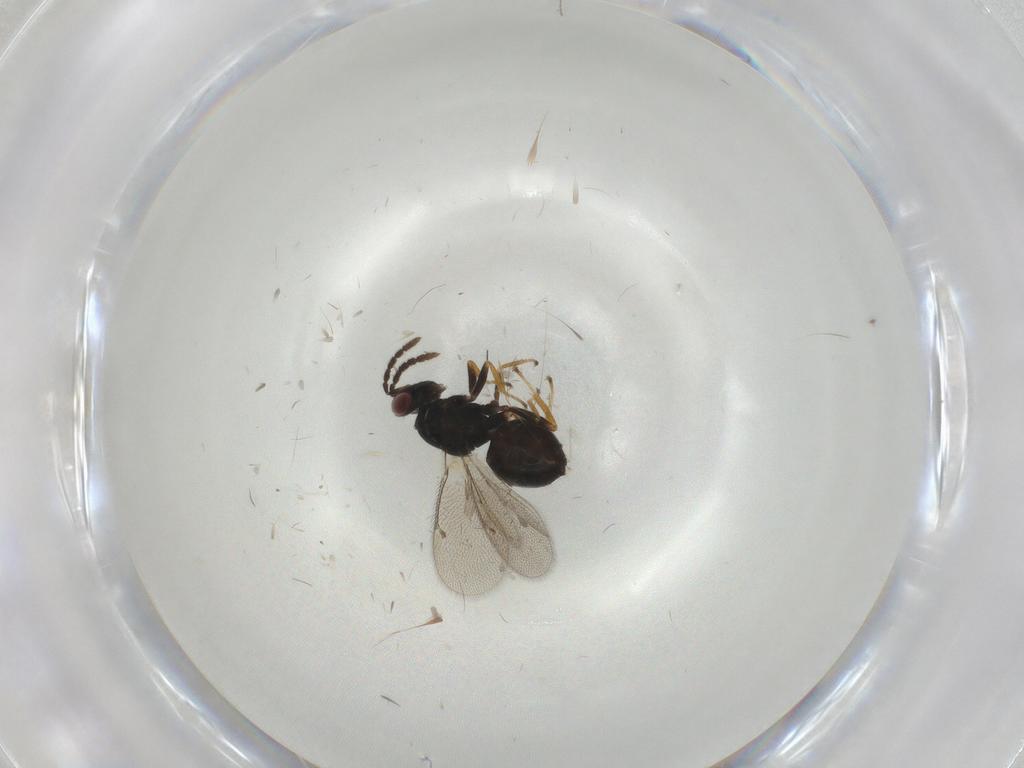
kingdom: Animalia
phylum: Arthropoda
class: Insecta
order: Hymenoptera
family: Eulophidae
